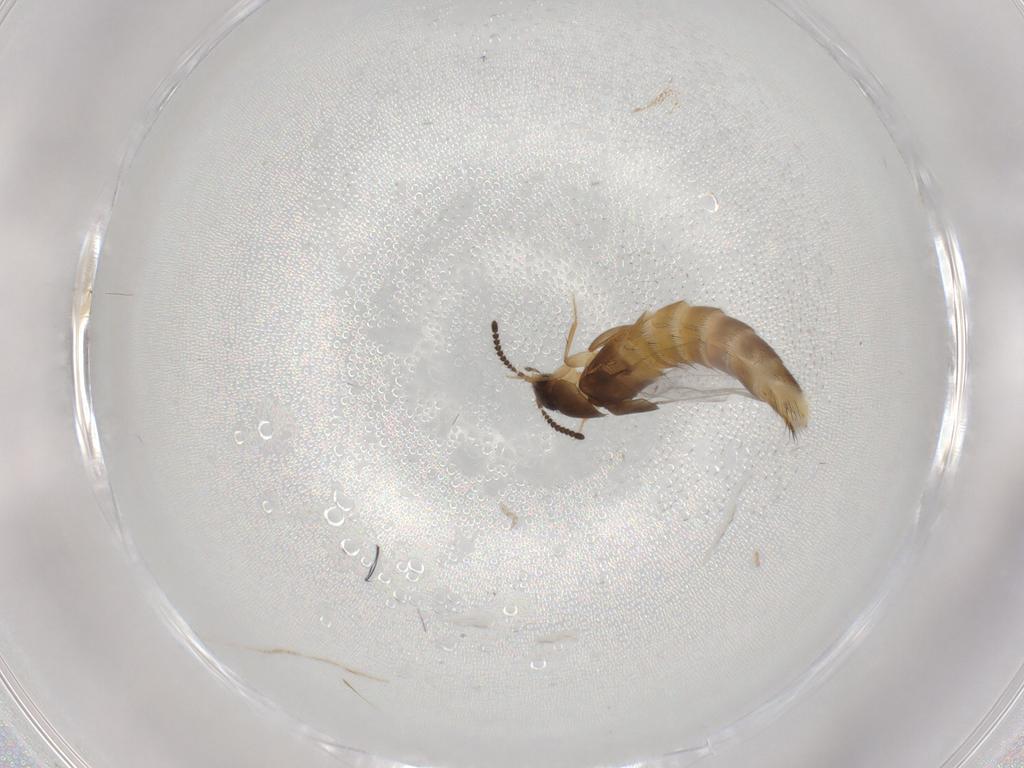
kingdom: Animalia
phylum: Arthropoda
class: Insecta
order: Coleoptera
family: Staphylinidae
